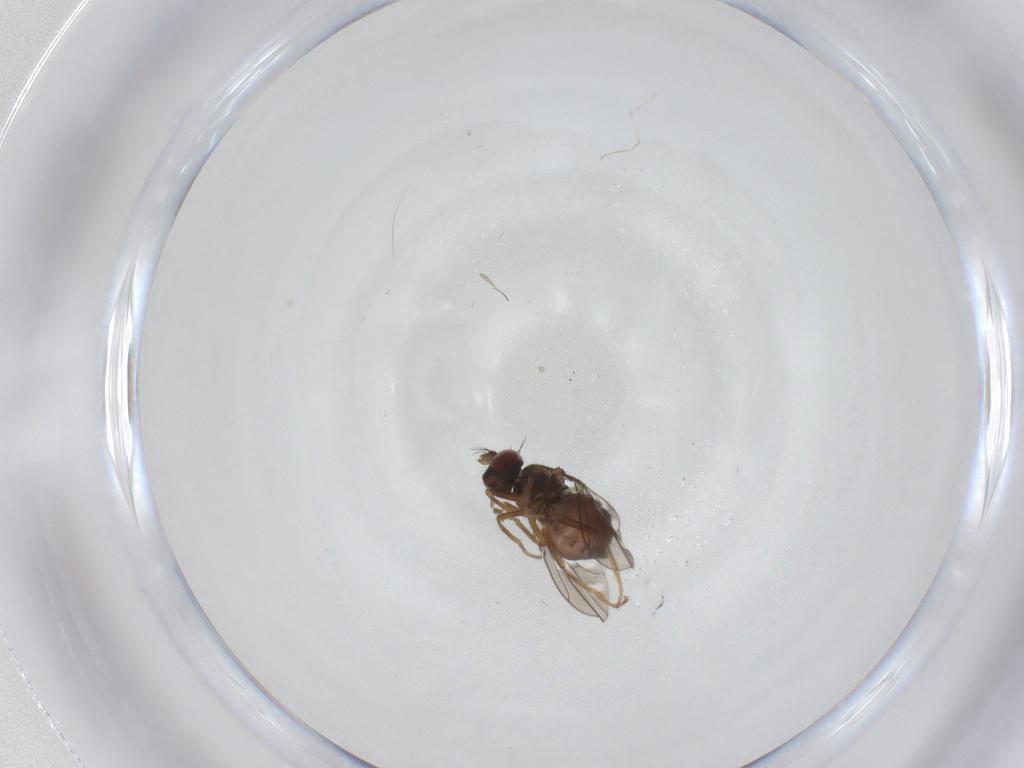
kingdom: Animalia
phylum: Arthropoda
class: Insecta
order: Diptera
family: Ephydridae
